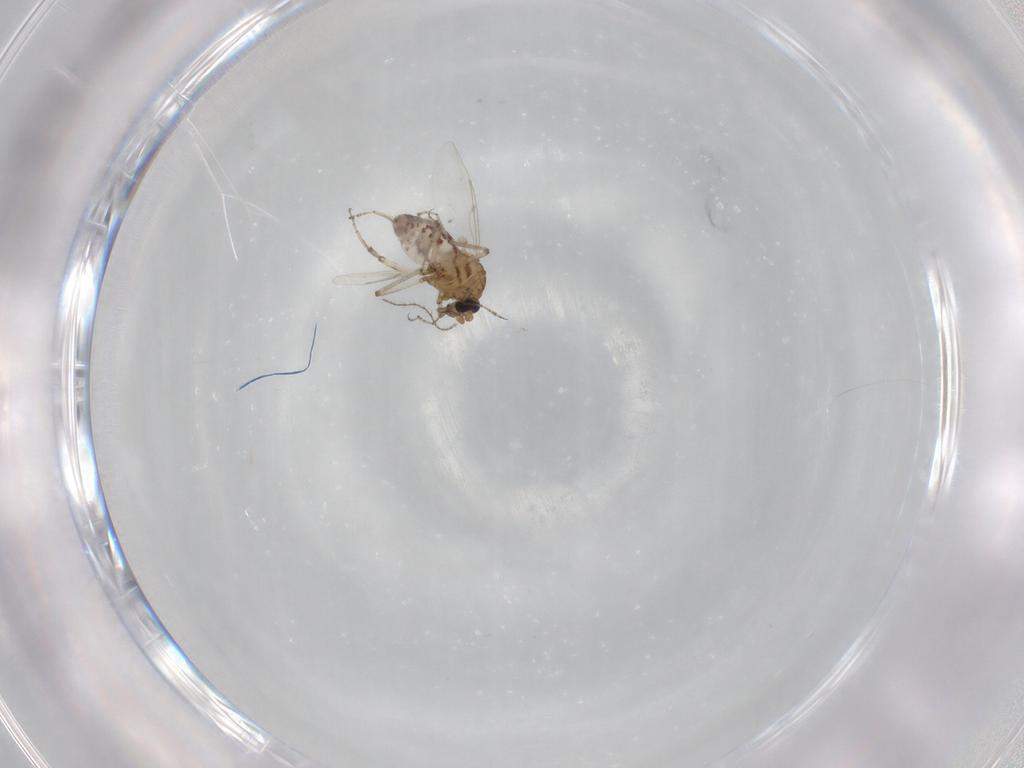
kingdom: Animalia
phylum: Arthropoda
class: Insecta
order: Diptera
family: Ceratopogonidae
